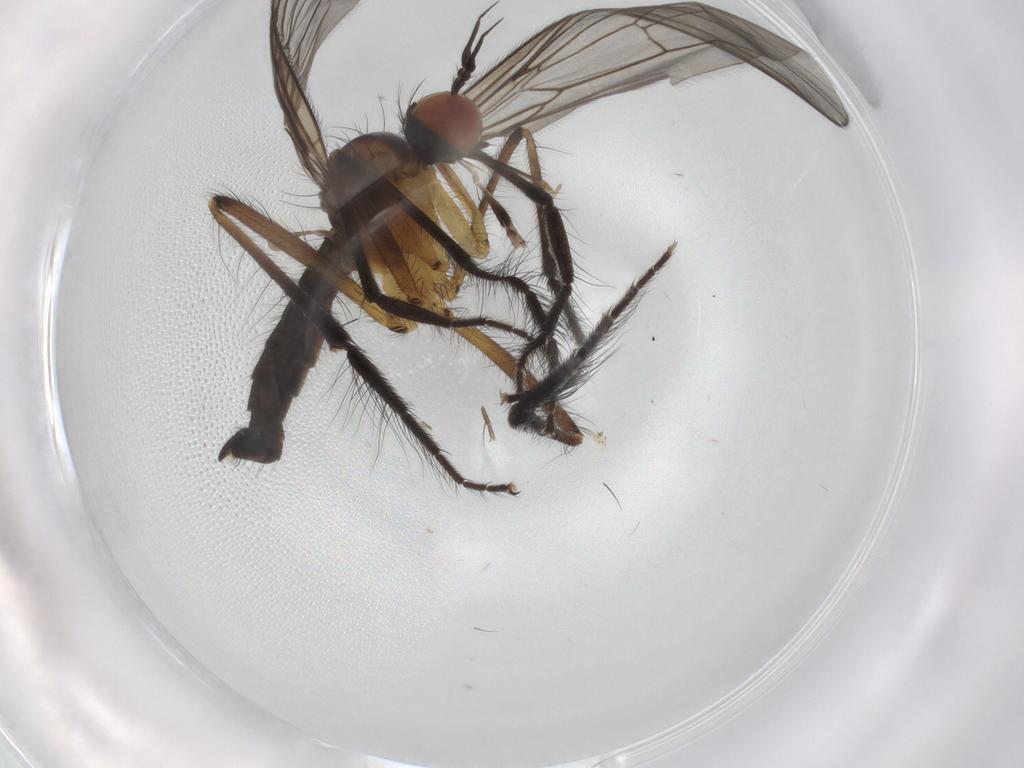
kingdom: Animalia
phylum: Arthropoda
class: Insecta
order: Diptera
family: Empididae
